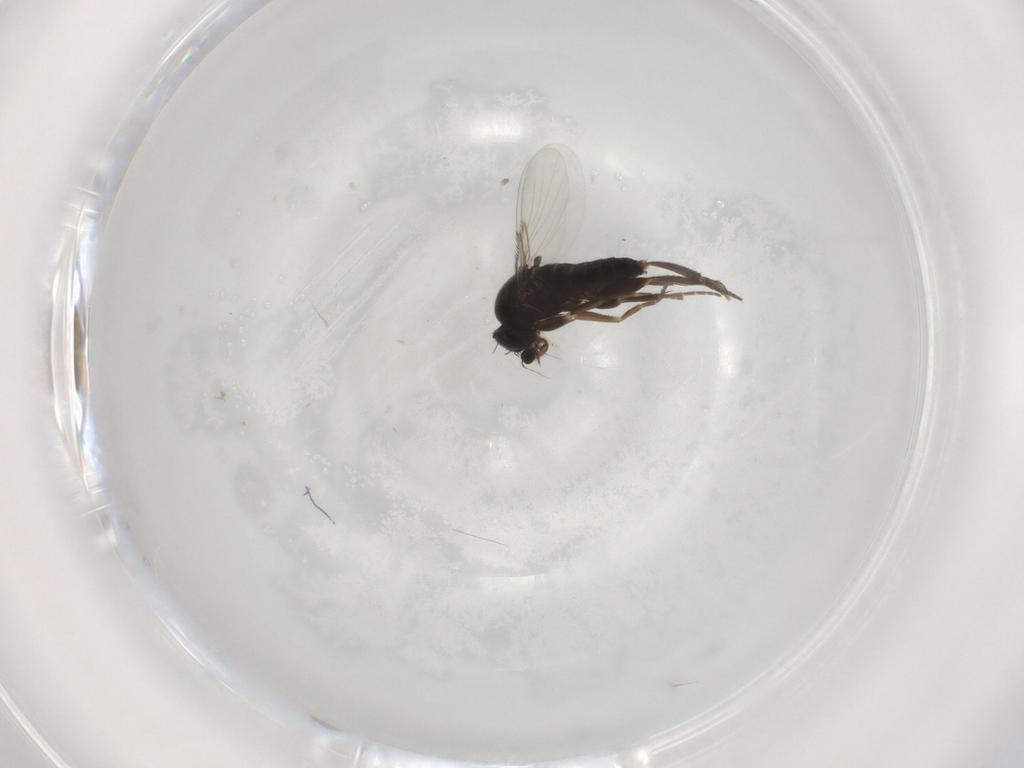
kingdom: Animalia
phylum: Arthropoda
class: Insecta
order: Diptera
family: Phoridae
